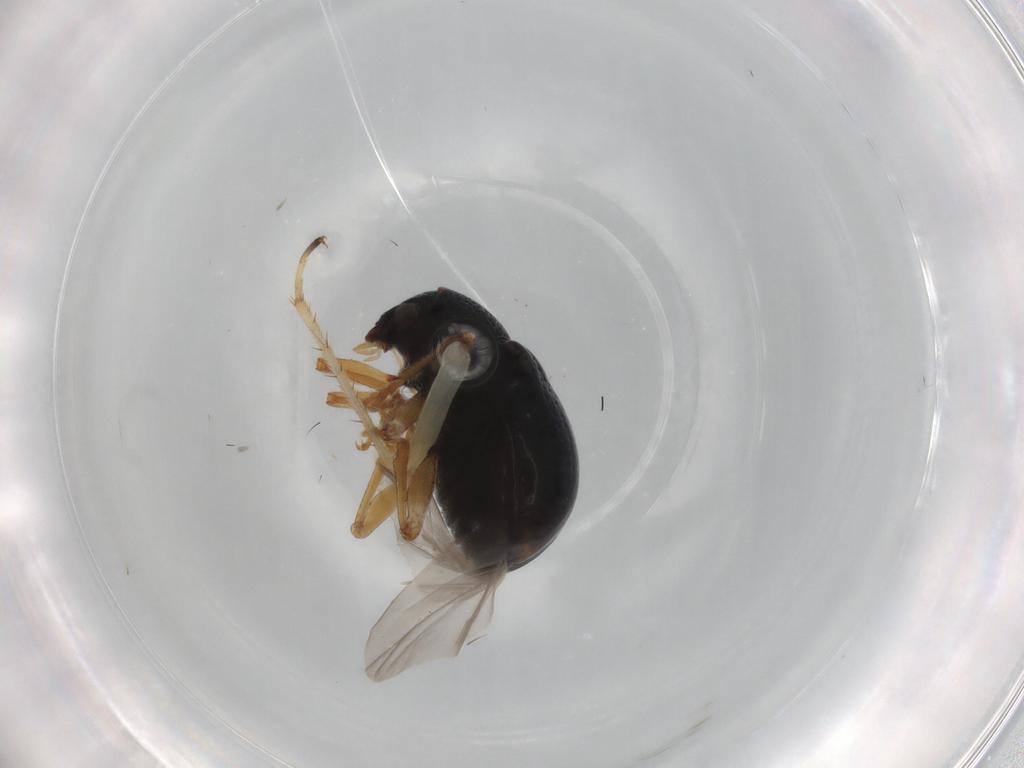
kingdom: Animalia
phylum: Arthropoda
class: Insecta
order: Coleoptera
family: Chrysomelidae
